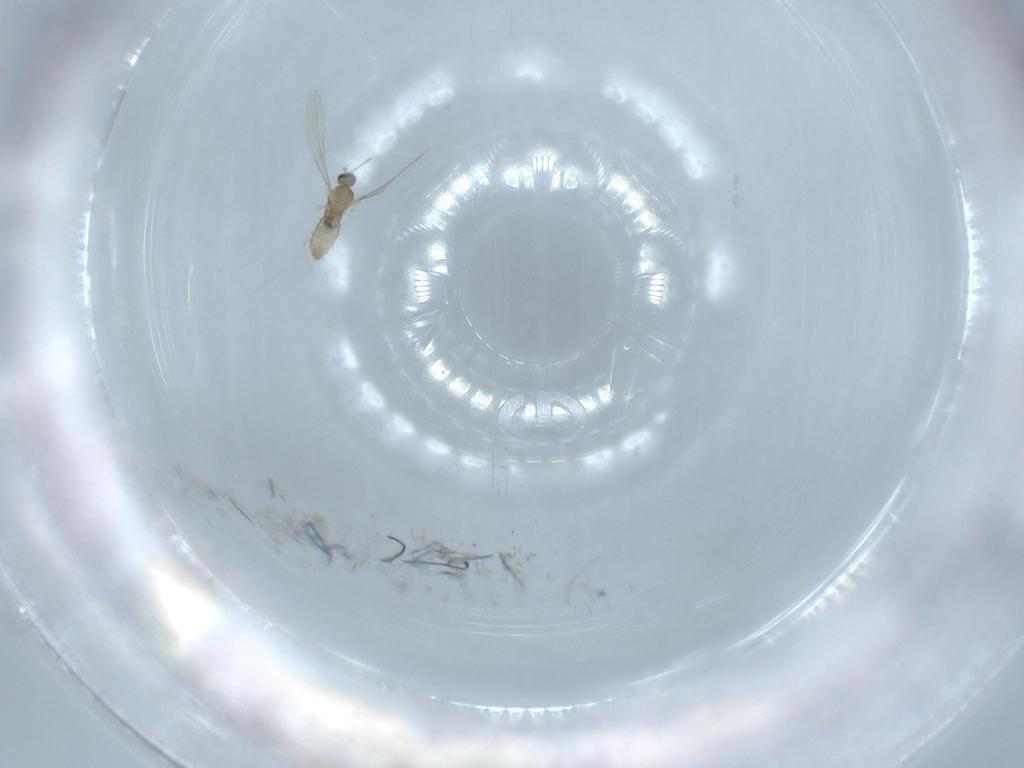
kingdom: Animalia
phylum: Arthropoda
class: Insecta
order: Diptera
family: Cecidomyiidae
